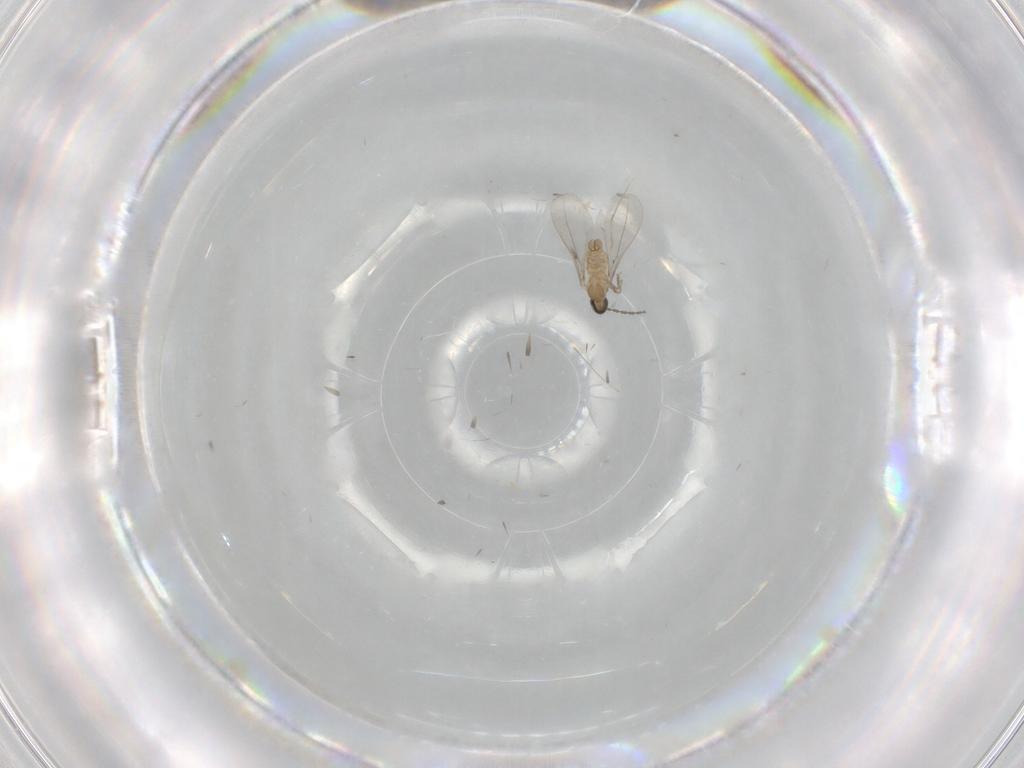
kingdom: Animalia
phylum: Arthropoda
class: Insecta
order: Diptera
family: Cecidomyiidae
